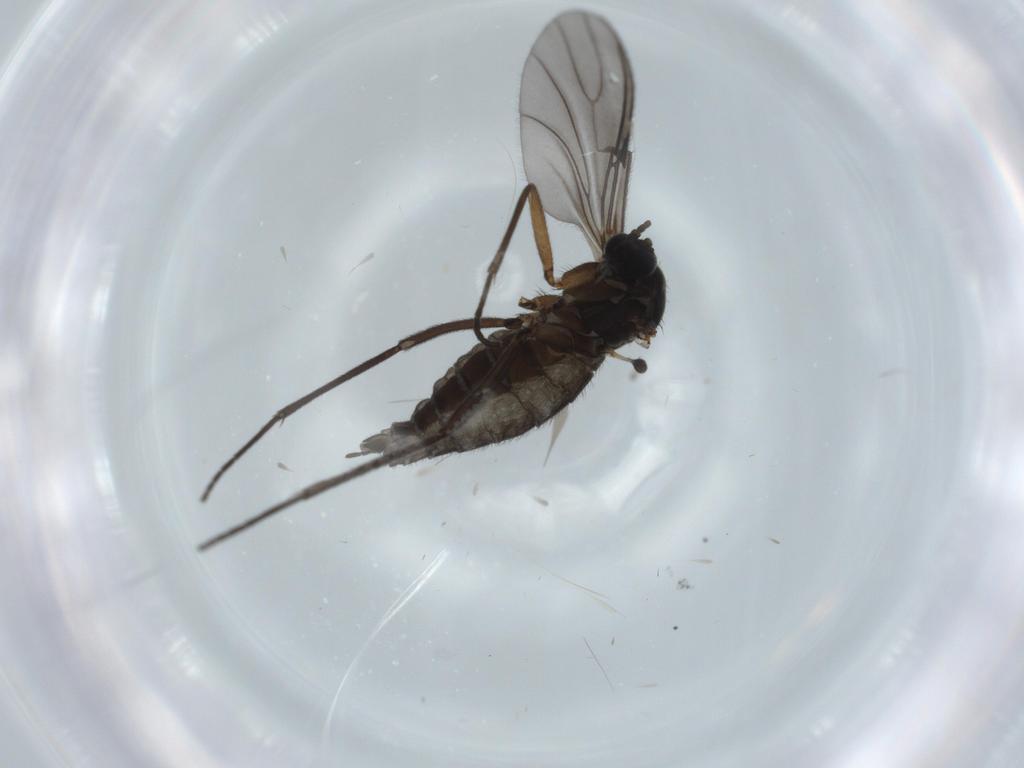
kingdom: Animalia
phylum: Arthropoda
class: Insecta
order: Diptera
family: Sciaridae
